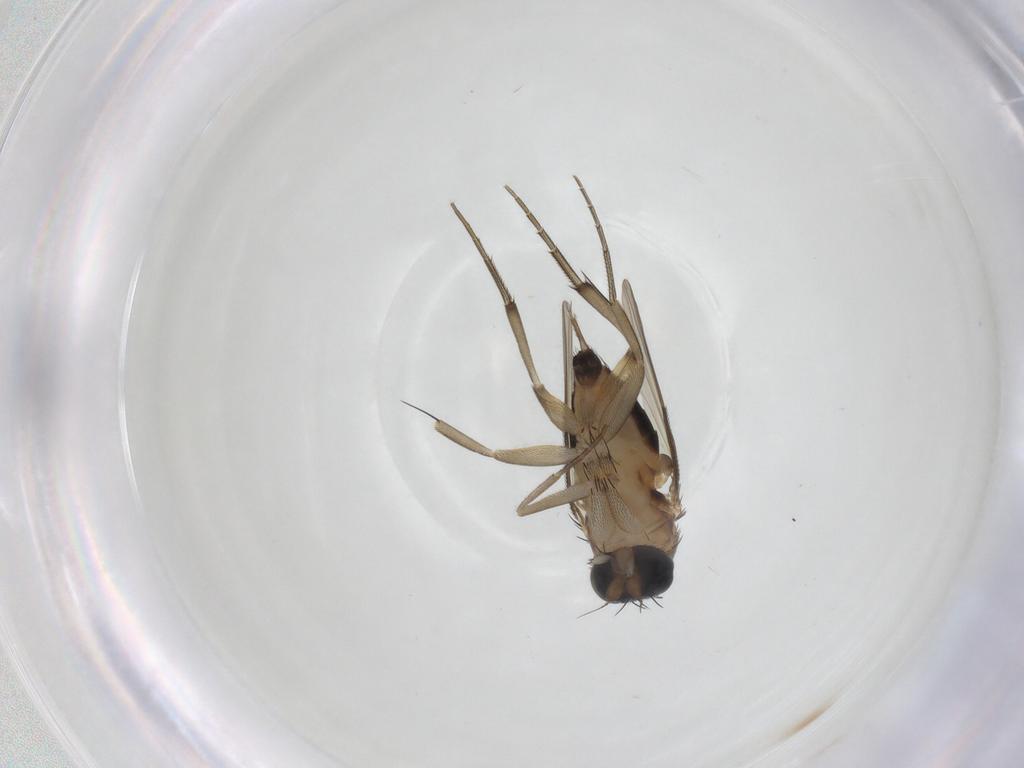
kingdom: Animalia
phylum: Arthropoda
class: Insecta
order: Diptera
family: Phoridae
